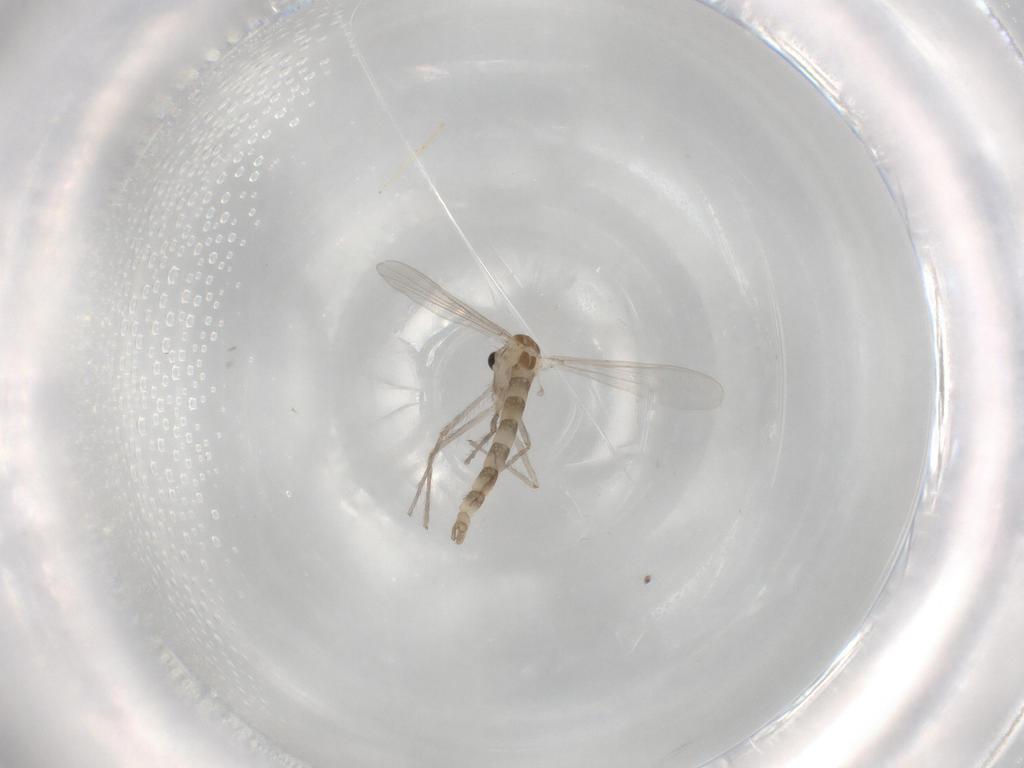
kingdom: Animalia
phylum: Arthropoda
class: Insecta
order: Diptera
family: Chironomidae
